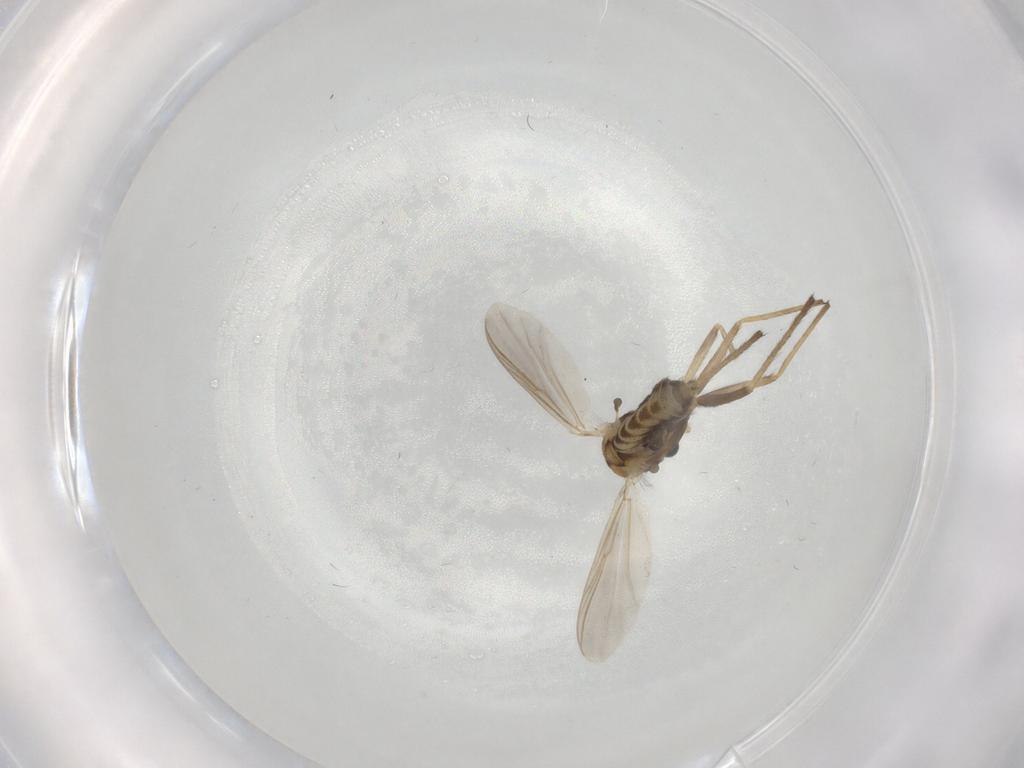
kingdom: Animalia
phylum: Arthropoda
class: Insecta
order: Diptera
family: Chironomidae
